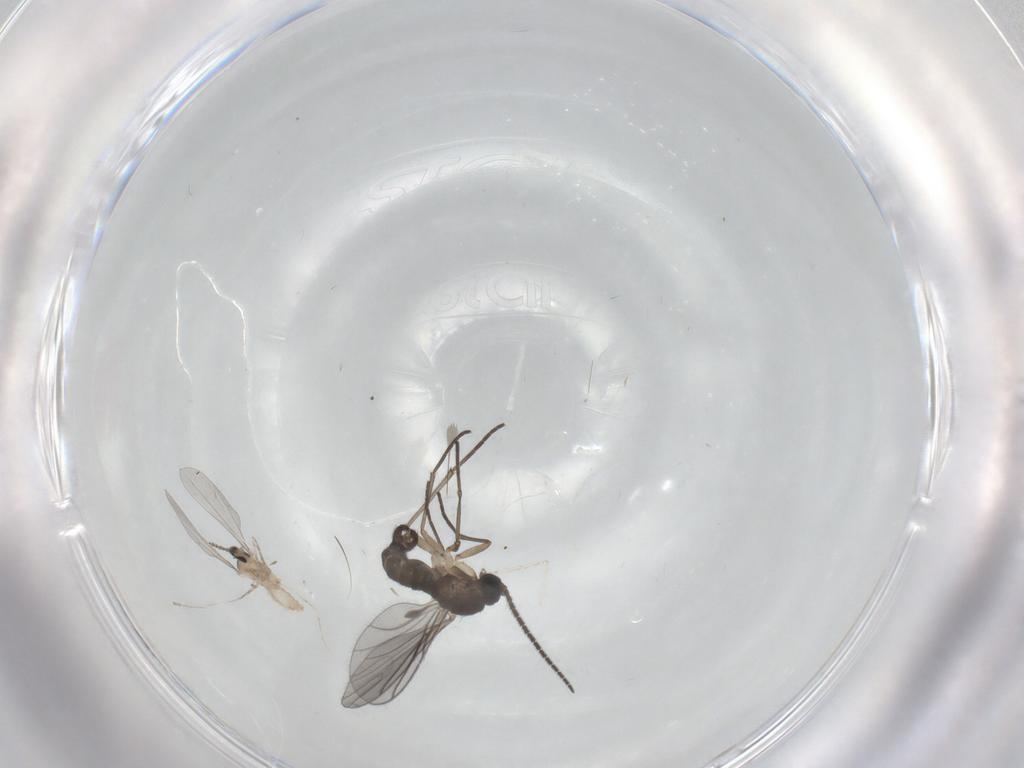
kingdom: Animalia
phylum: Arthropoda
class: Insecta
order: Diptera
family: Sciaridae
